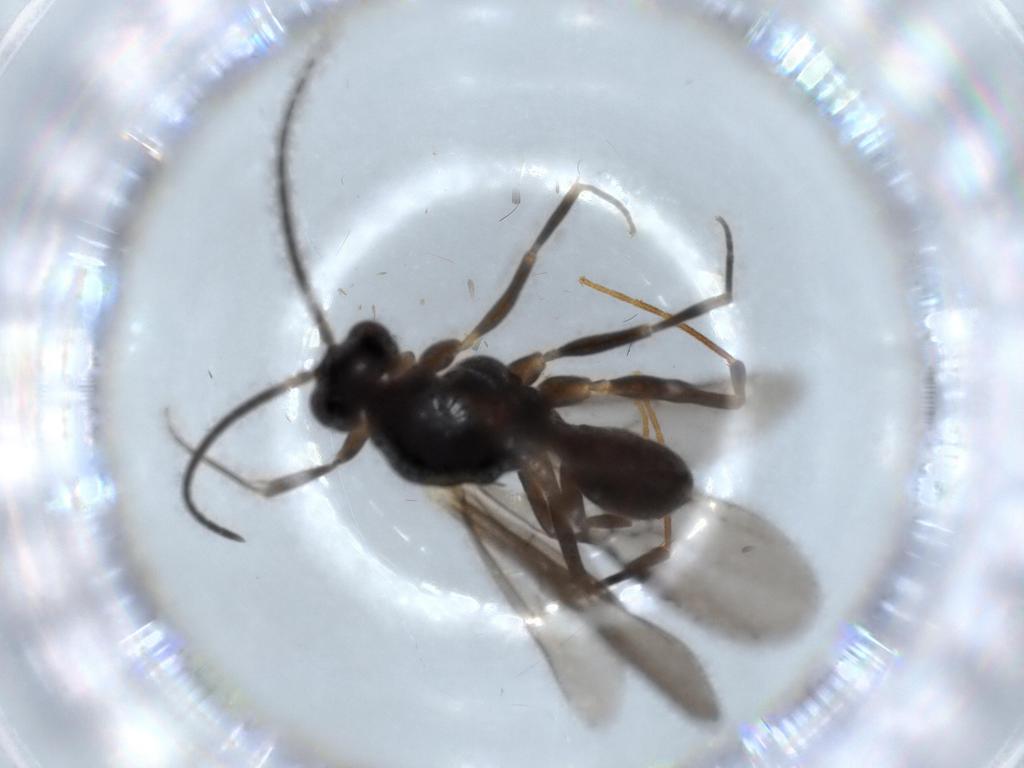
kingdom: Animalia
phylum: Arthropoda
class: Insecta
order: Hymenoptera
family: Formicidae
